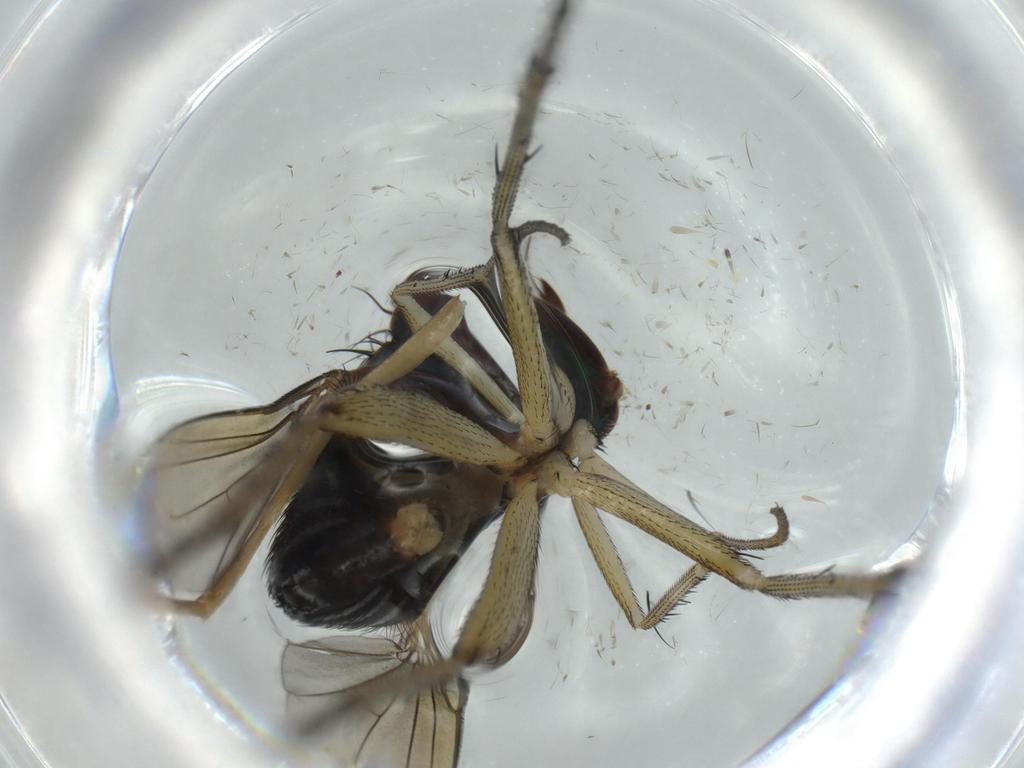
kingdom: Animalia
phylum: Arthropoda
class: Insecta
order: Diptera
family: Dolichopodidae
